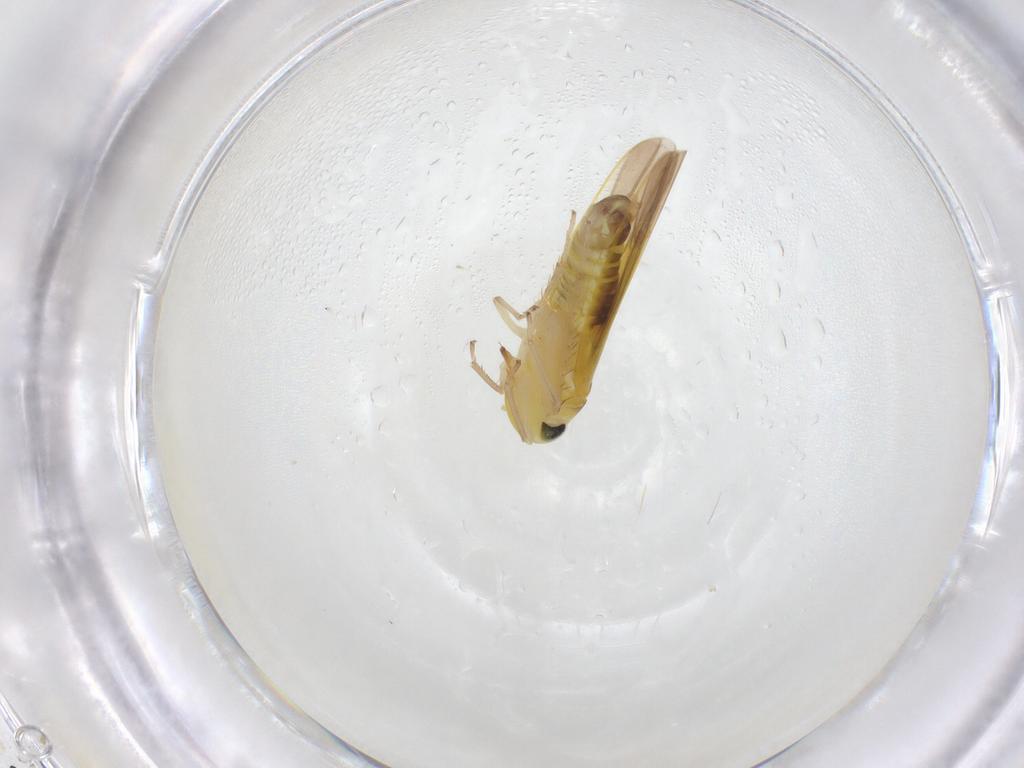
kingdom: Animalia
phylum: Arthropoda
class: Insecta
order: Hemiptera
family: Cicadellidae
